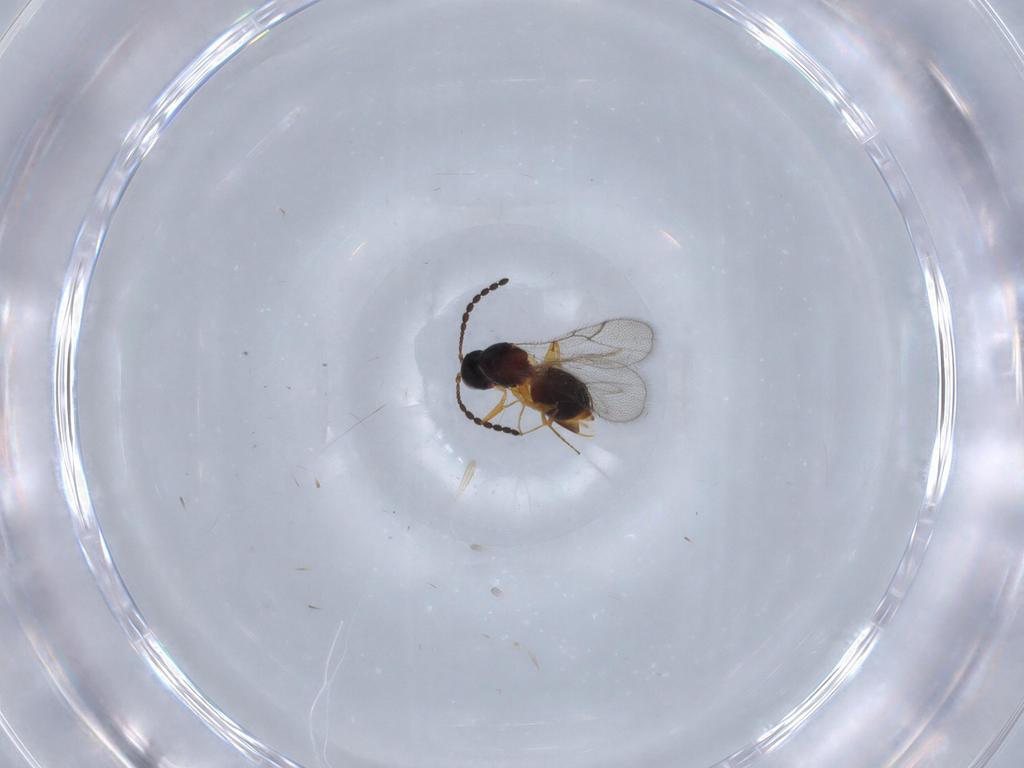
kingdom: Animalia
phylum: Arthropoda
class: Insecta
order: Hymenoptera
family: Figitidae
